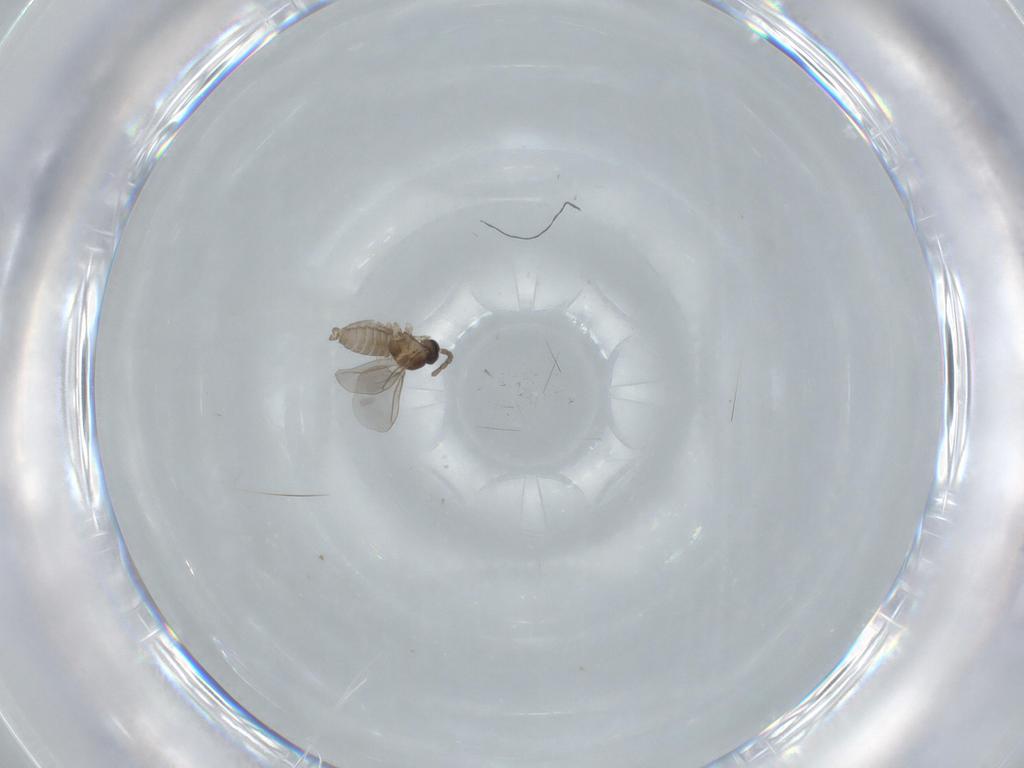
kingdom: Animalia
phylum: Arthropoda
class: Insecta
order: Diptera
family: Cecidomyiidae
